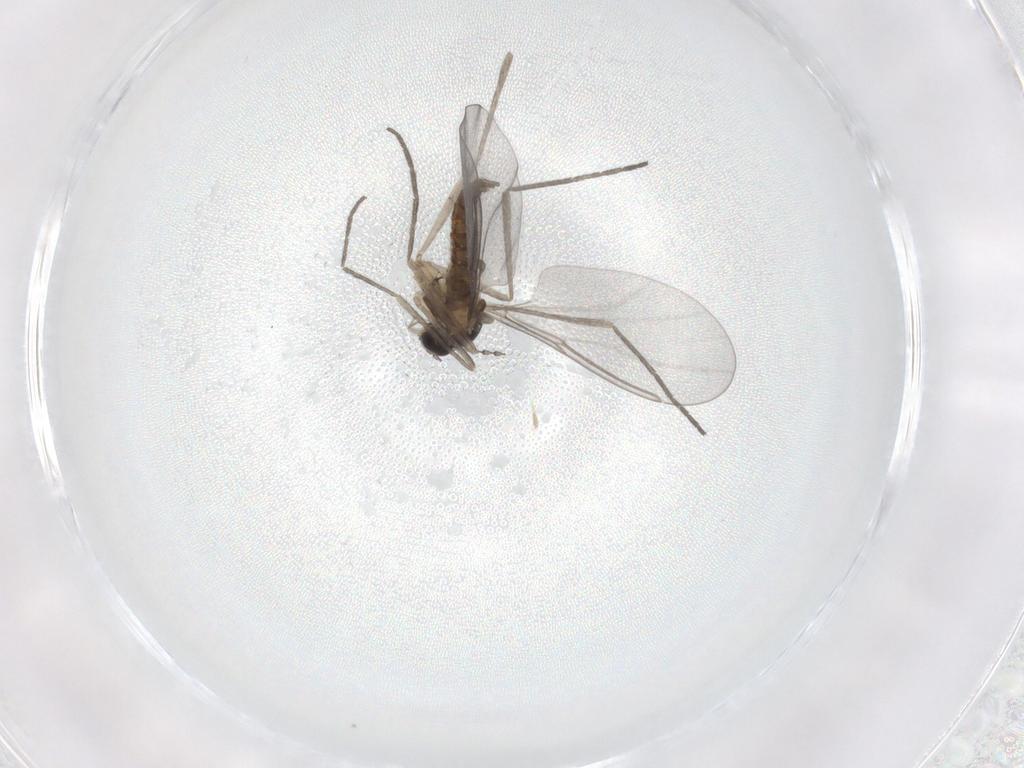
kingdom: Animalia
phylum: Arthropoda
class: Insecta
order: Diptera
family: Cecidomyiidae
